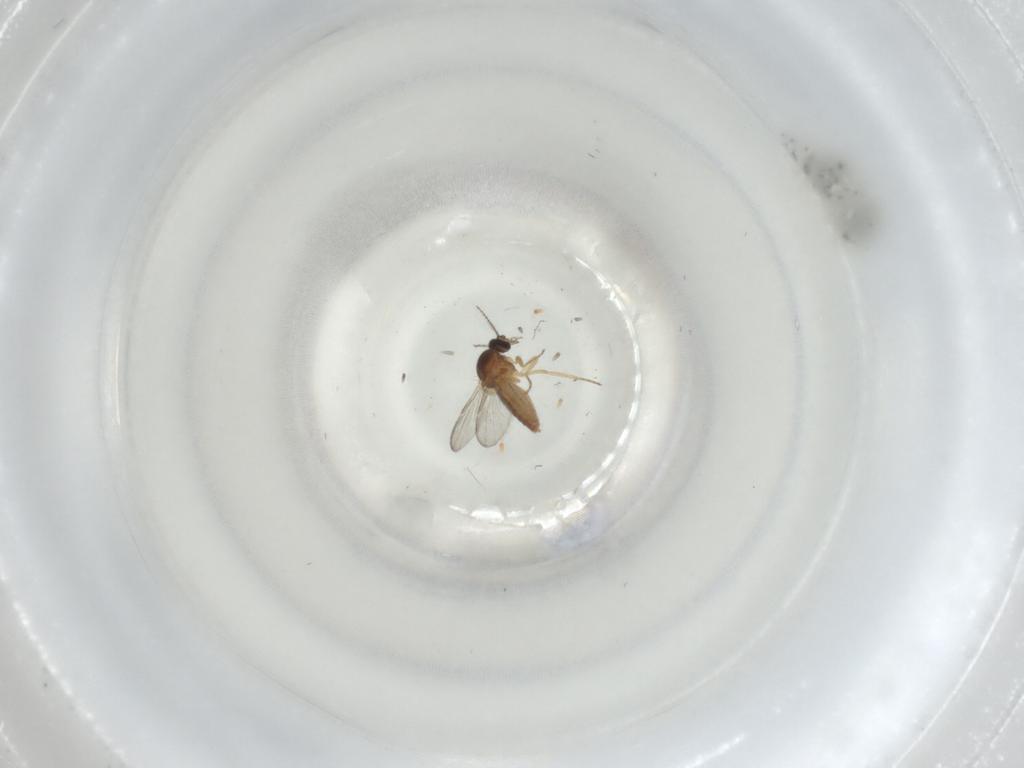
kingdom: Animalia
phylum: Arthropoda
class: Insecta
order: Diptera
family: Ceratopogonidae
